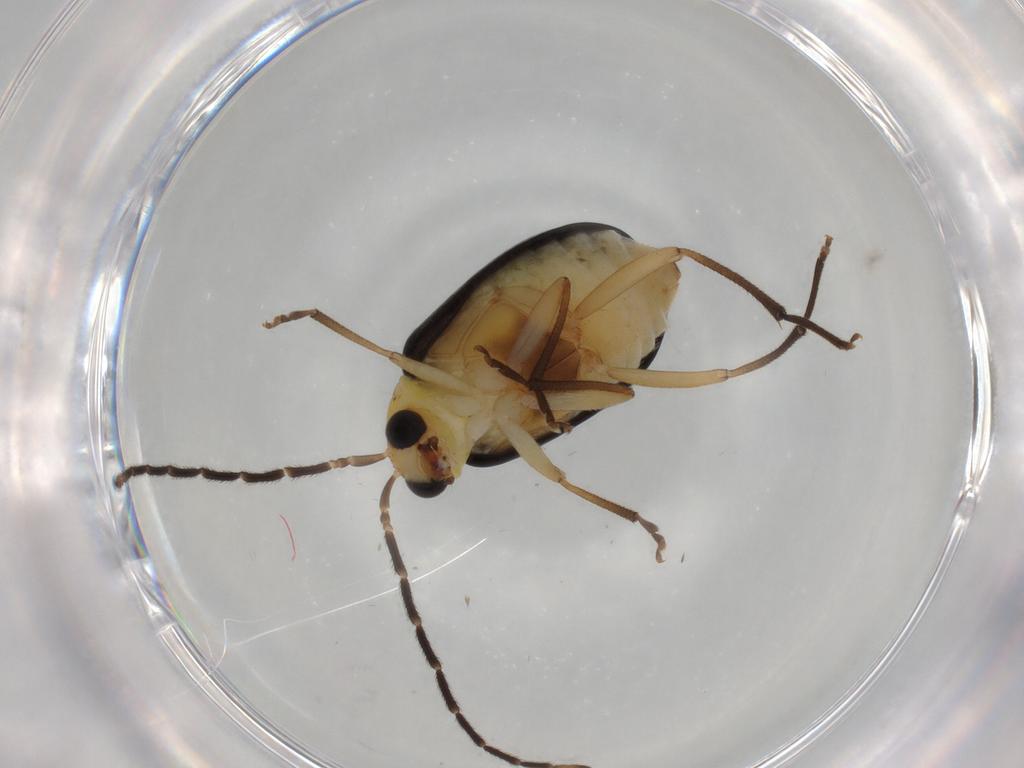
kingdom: Animalia
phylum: Arthropoda
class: Insecta
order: Coleoptera
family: Chrysomelidae
